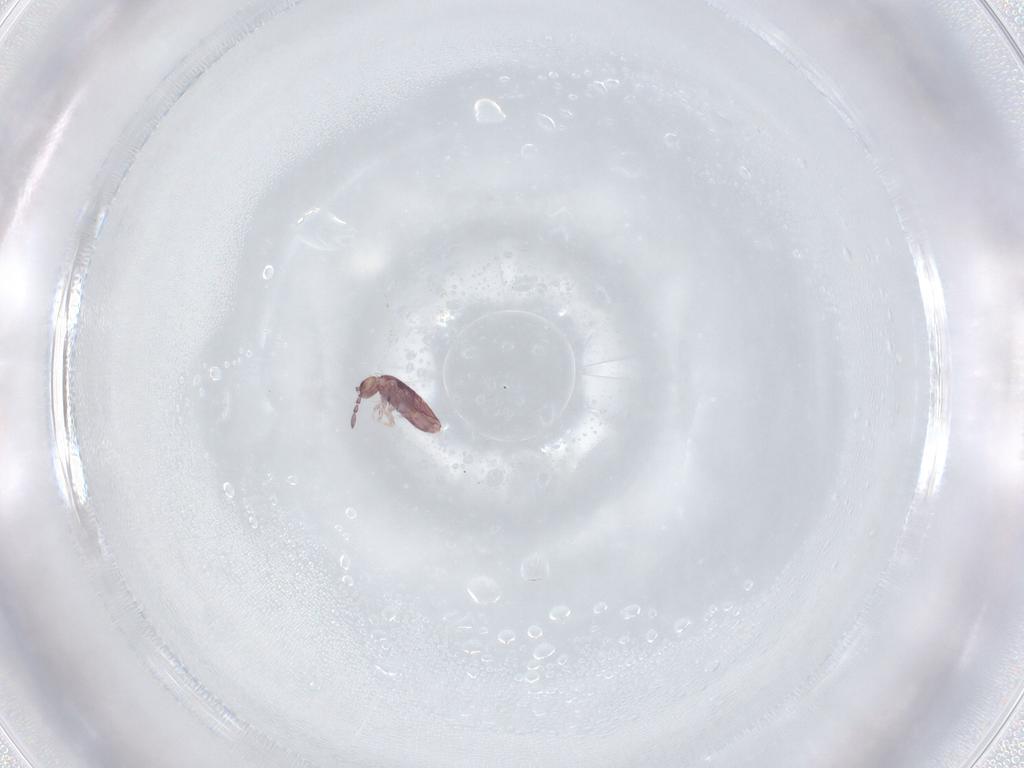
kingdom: Animalia
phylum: Arthropoda
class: Collembola
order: Entomobryomorpha
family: Entomobryidae
